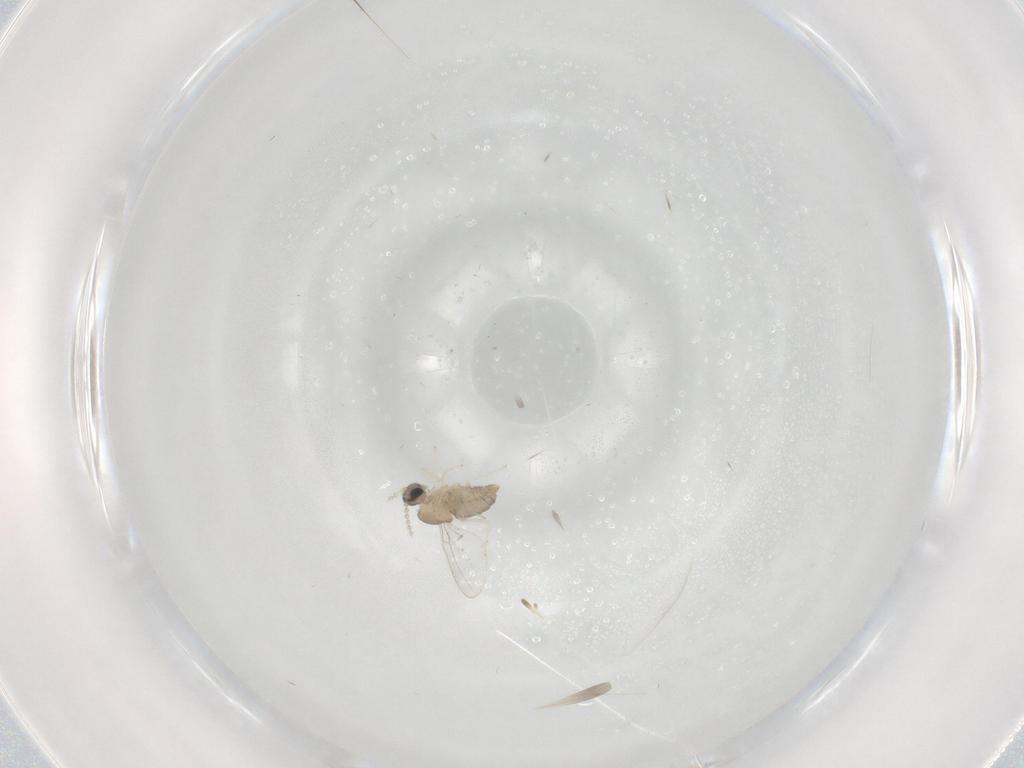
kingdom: Animalia
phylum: Arthropoda
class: Insecta
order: Diptera
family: Cecidomyiidae
